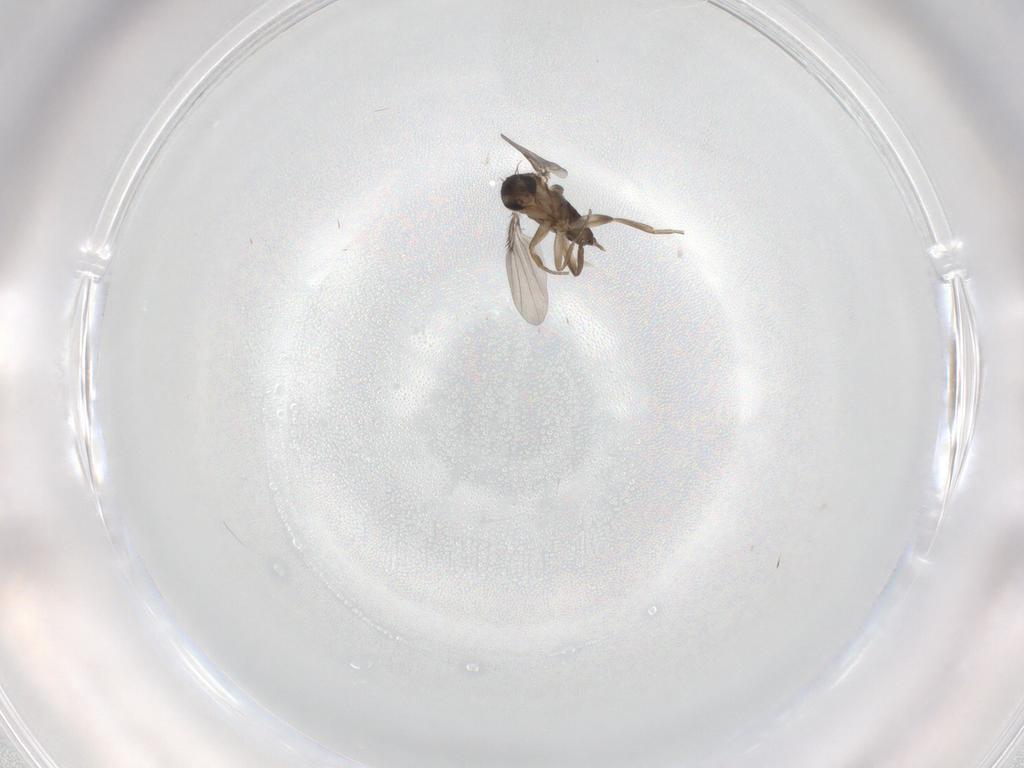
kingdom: Animalia
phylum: Arthropoda
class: Insecta
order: Diptera
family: Phoridae
